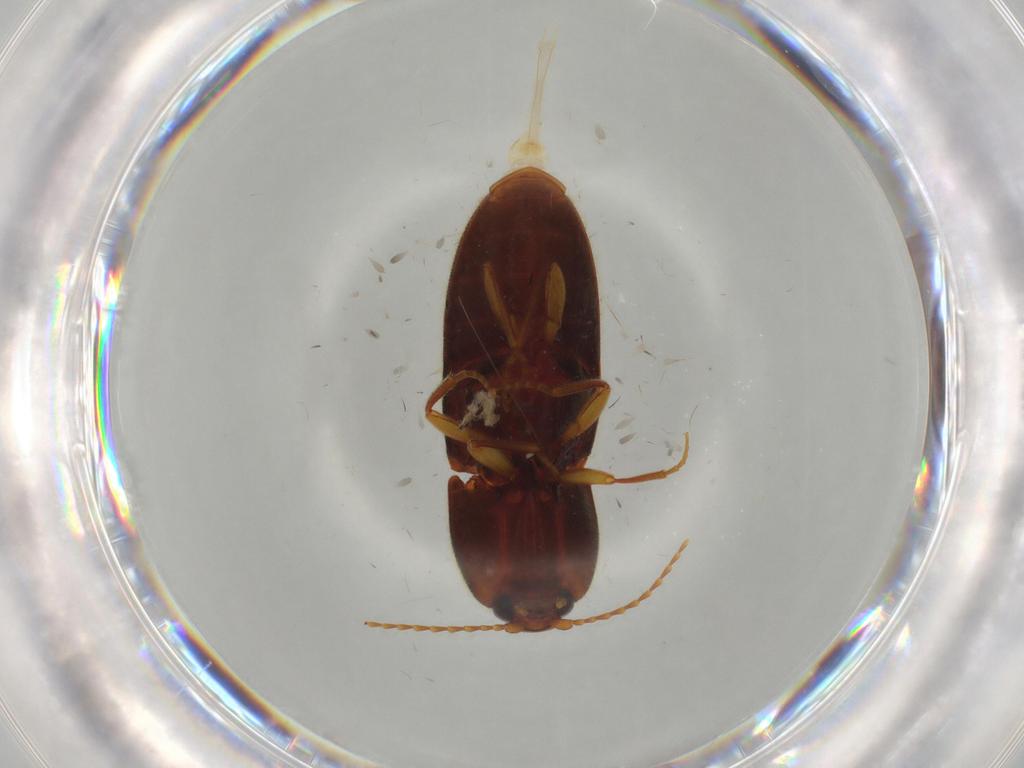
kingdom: Animalia
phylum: Arthropoda
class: Insecta
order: Coleoptera
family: Elateridae
